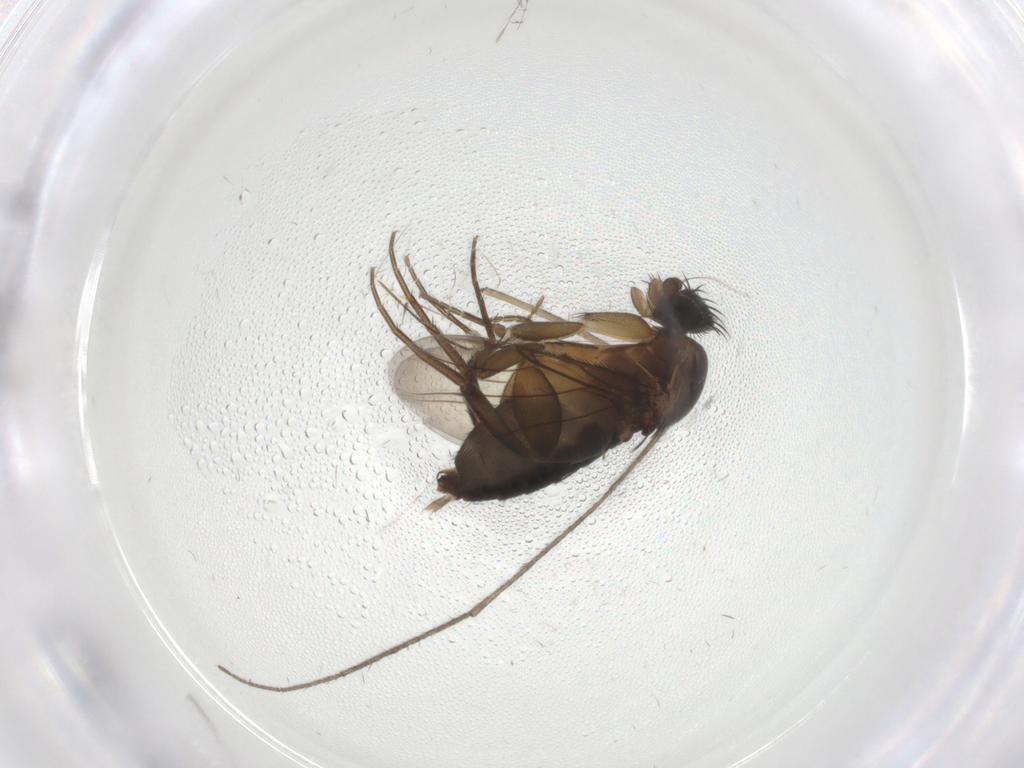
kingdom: Animalia
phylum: Arthropoda
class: Insecta
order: Diptera
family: Phoridae
